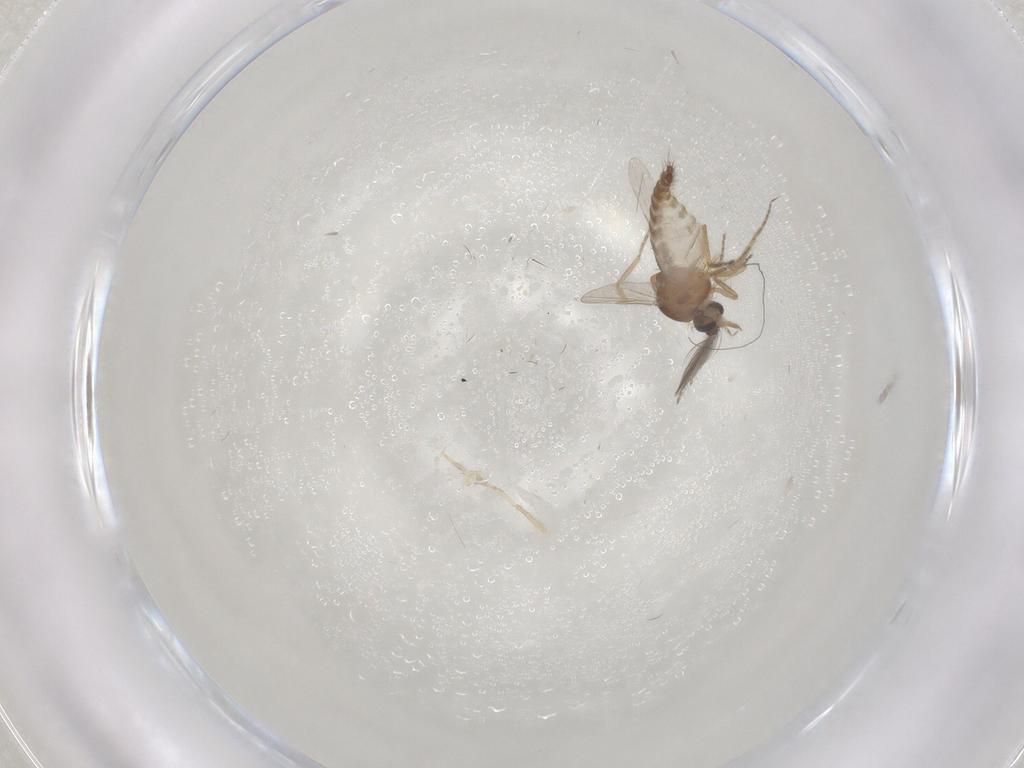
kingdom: Animalia
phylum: Arthropoda
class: Insecta
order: Diptera
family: Ceratopogonidae
